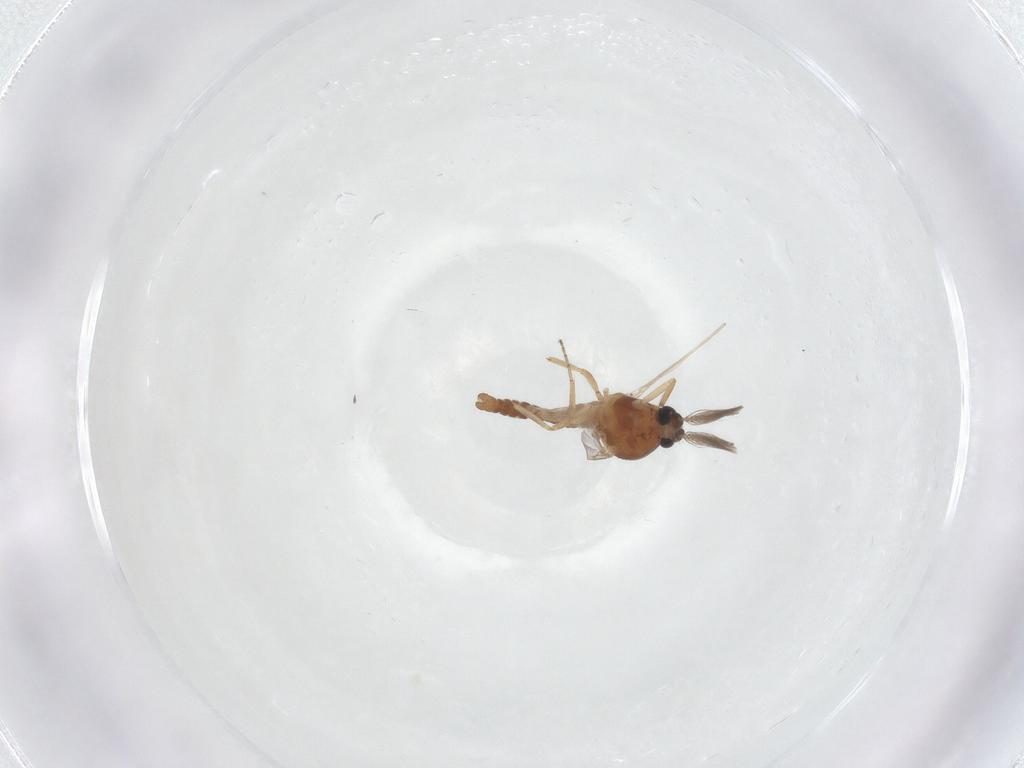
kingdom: Animalia
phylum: Arthropoda
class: Insecta
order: Diptera
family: Ceratopogonidae
